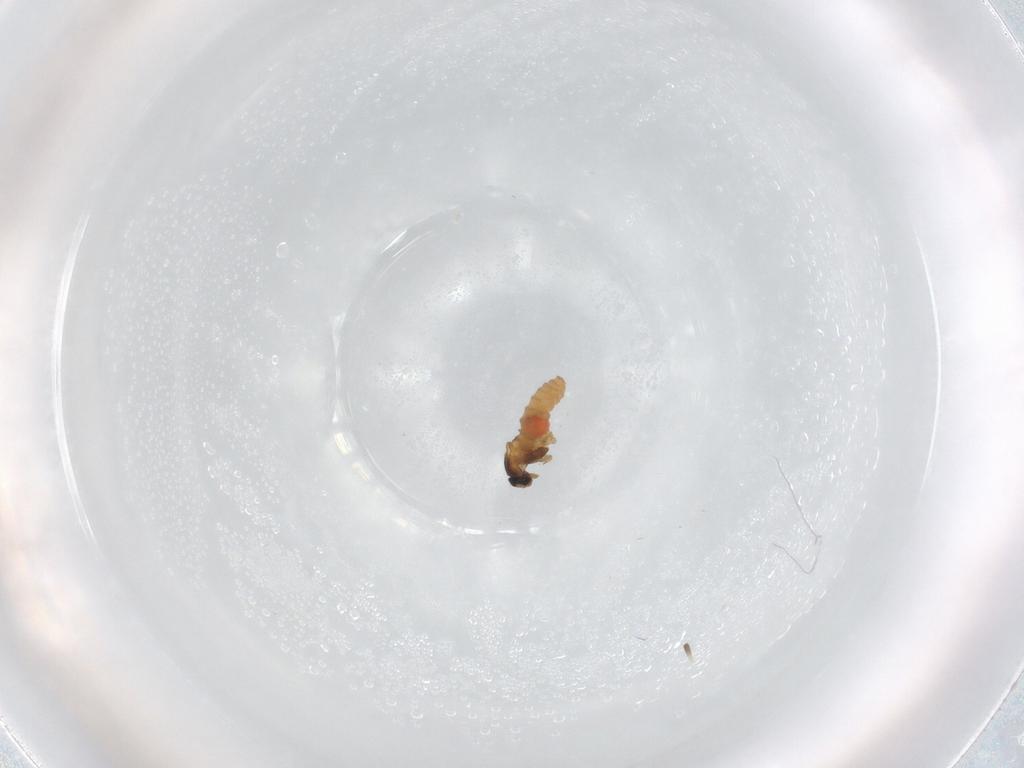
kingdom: Animalia
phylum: Arthropoda
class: Insecta
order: Diptera
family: Cecidomyiidae
